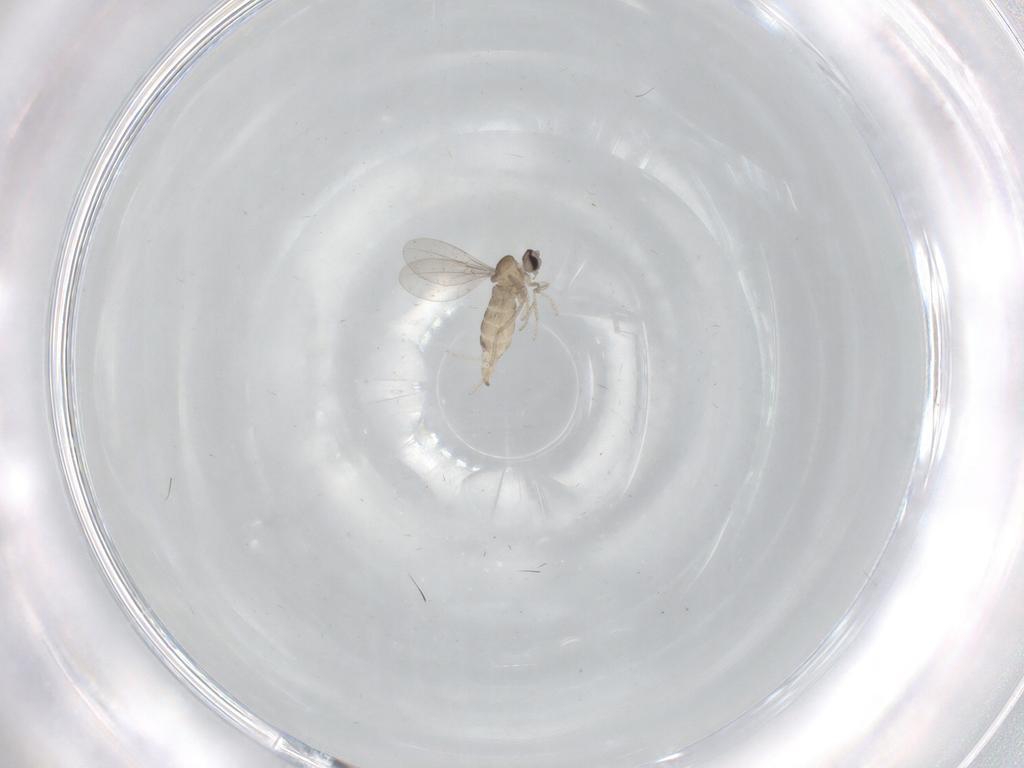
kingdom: Animalia
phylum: Arthropoda
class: Insecta
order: Diptera
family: Cecidomyiidae
